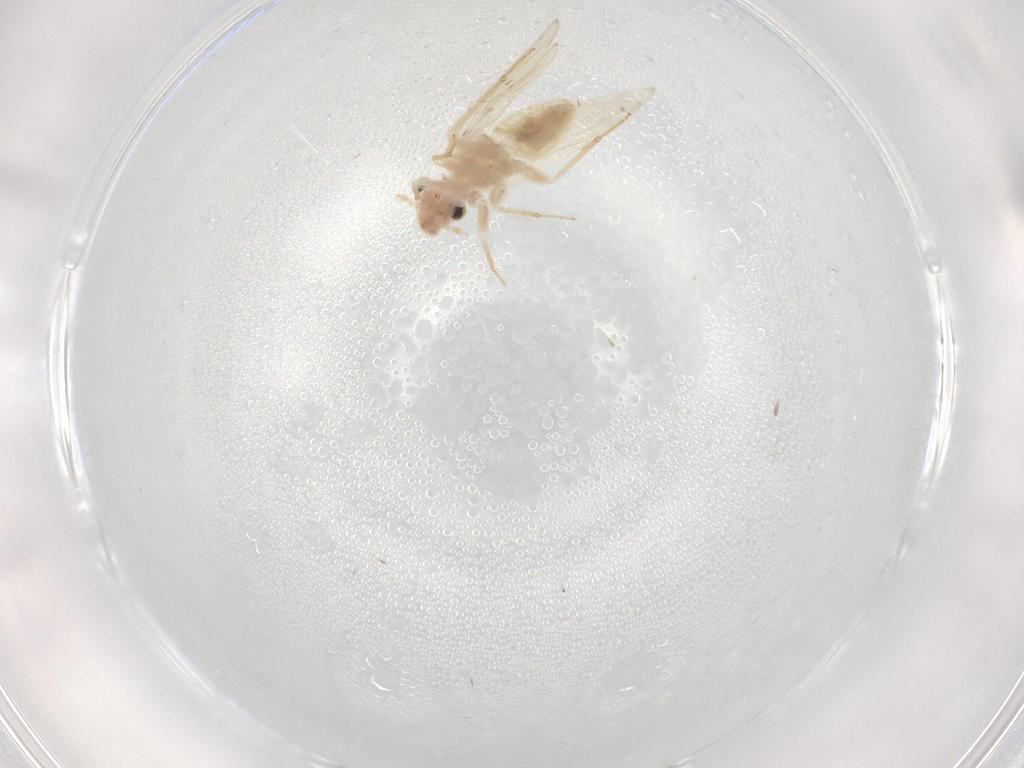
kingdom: Animalia
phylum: Arthropoda
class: Insecta
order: Psocodea
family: Lepidopsocidae
